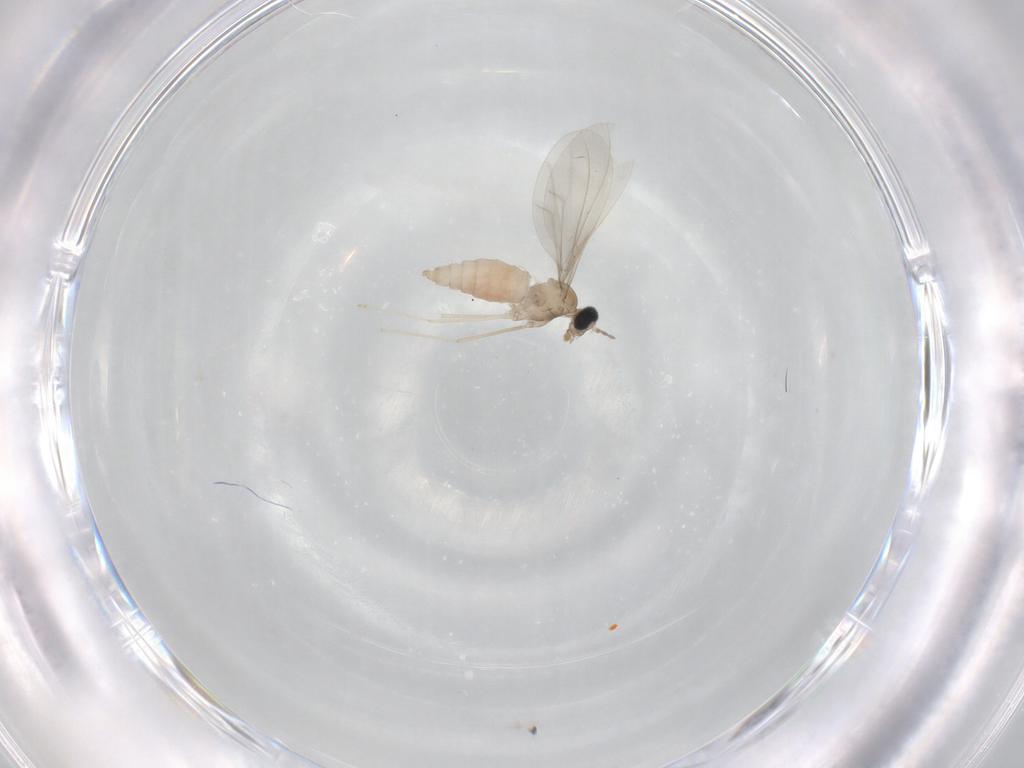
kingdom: Animalia
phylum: Arthropoda
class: Insecta
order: Diptera
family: Cecidomyiidae
